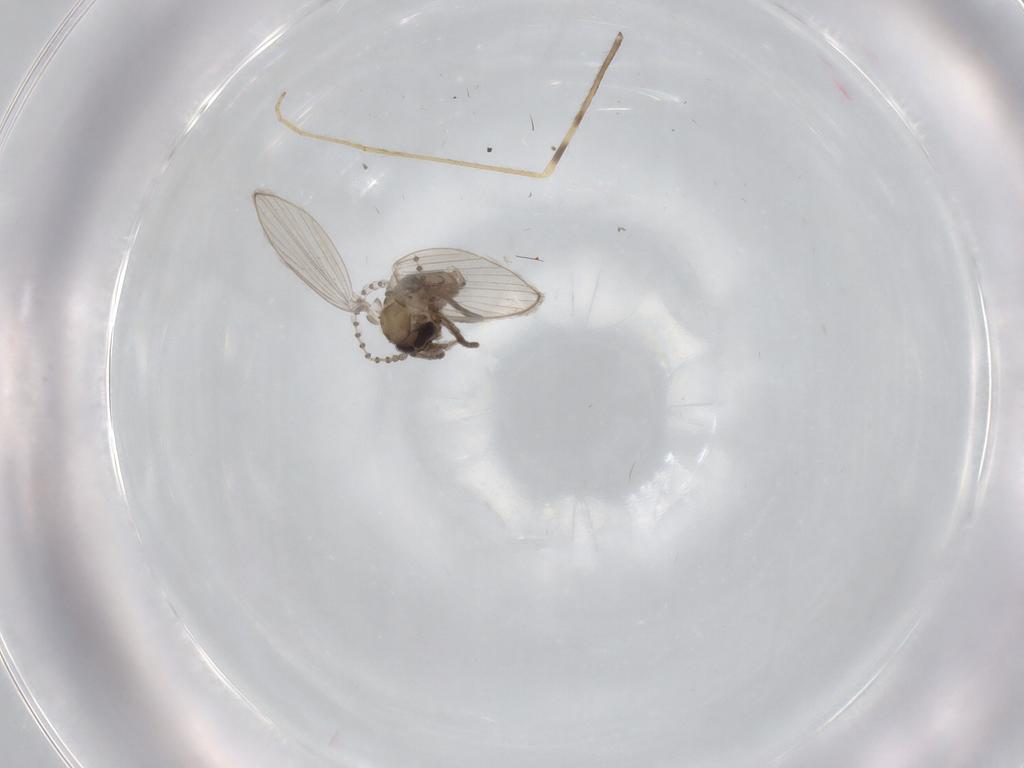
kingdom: Animalia
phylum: Arthropoda
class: Insecta
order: Diptera
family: Psychodidae
